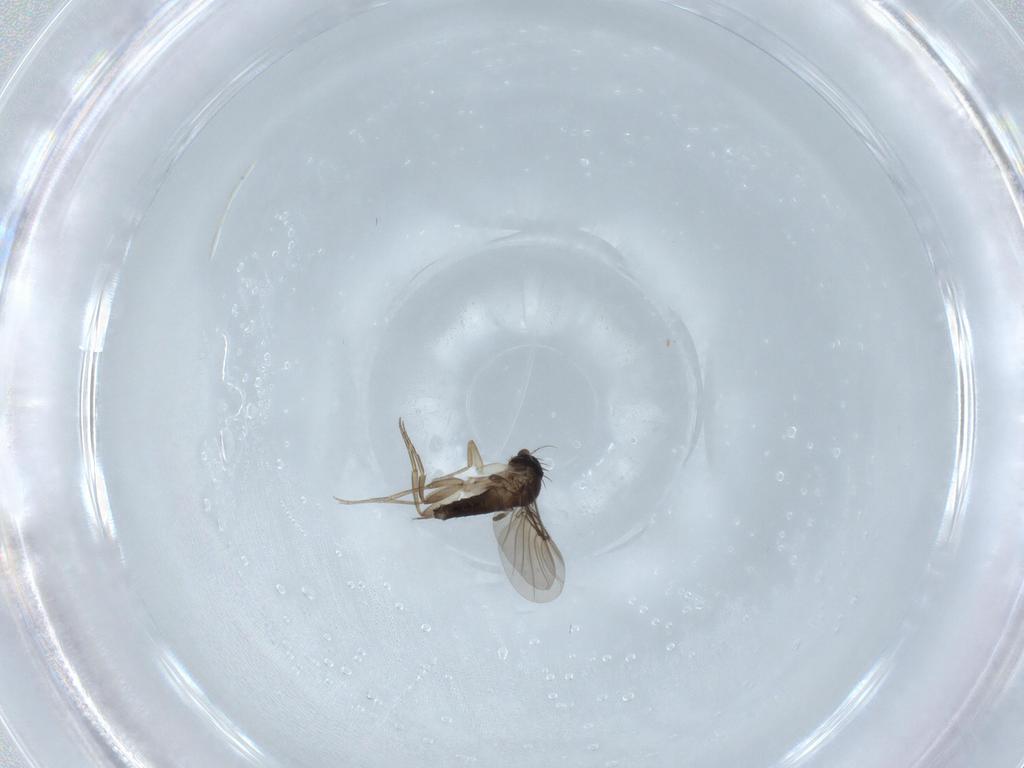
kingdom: Animalia
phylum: Arthropoda
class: Insecta
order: Diptera
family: Phoridae
